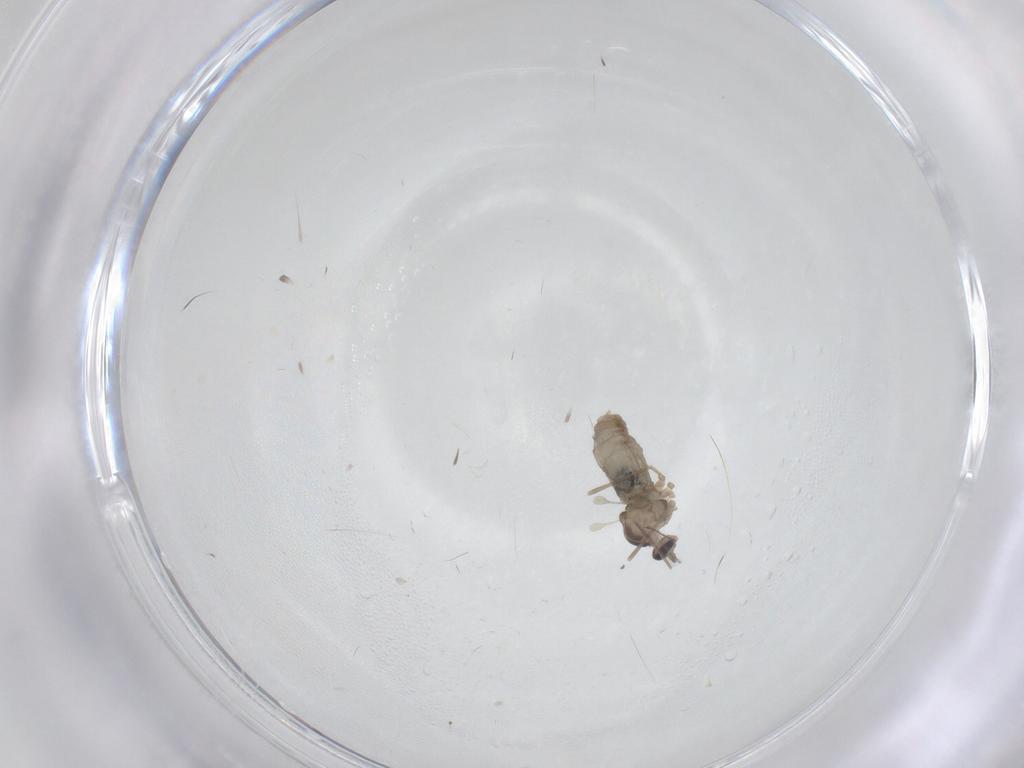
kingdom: Animalia
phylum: Arthropoda
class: Insecta
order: Diptera
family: Cecidomyiidae
